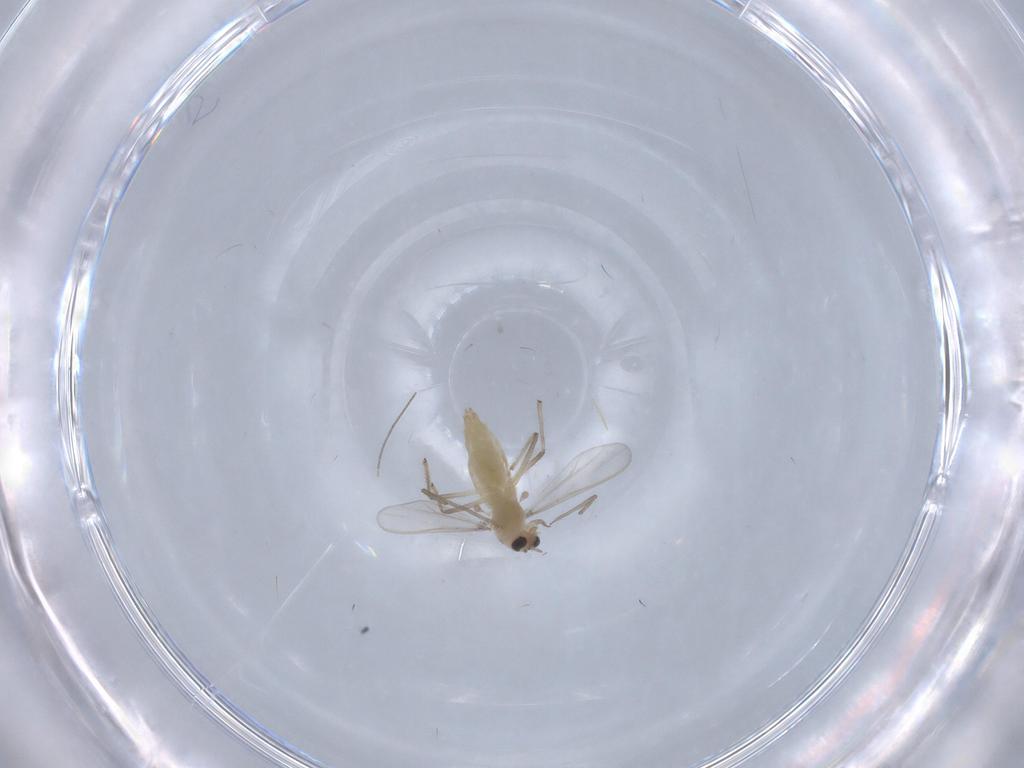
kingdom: Animalia
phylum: Arthropoda
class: Insecta
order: Diptera
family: Chironomidae
